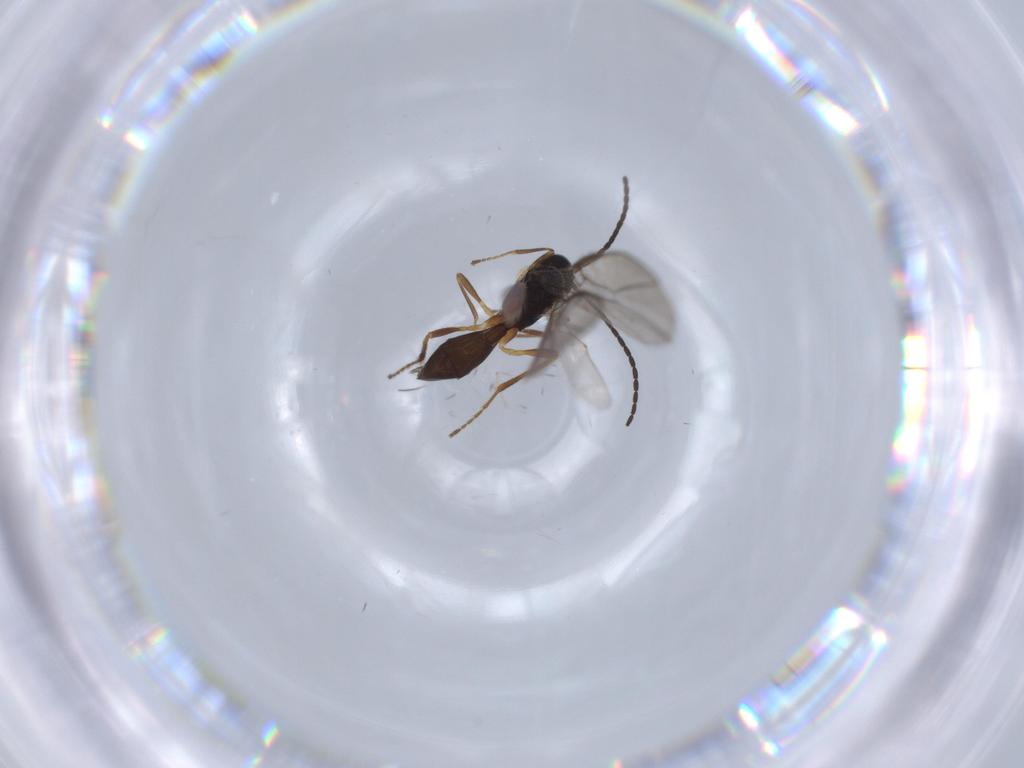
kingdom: Animalia
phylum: Arthropoda
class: Insecta
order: Hymenoptera
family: Braconidae
